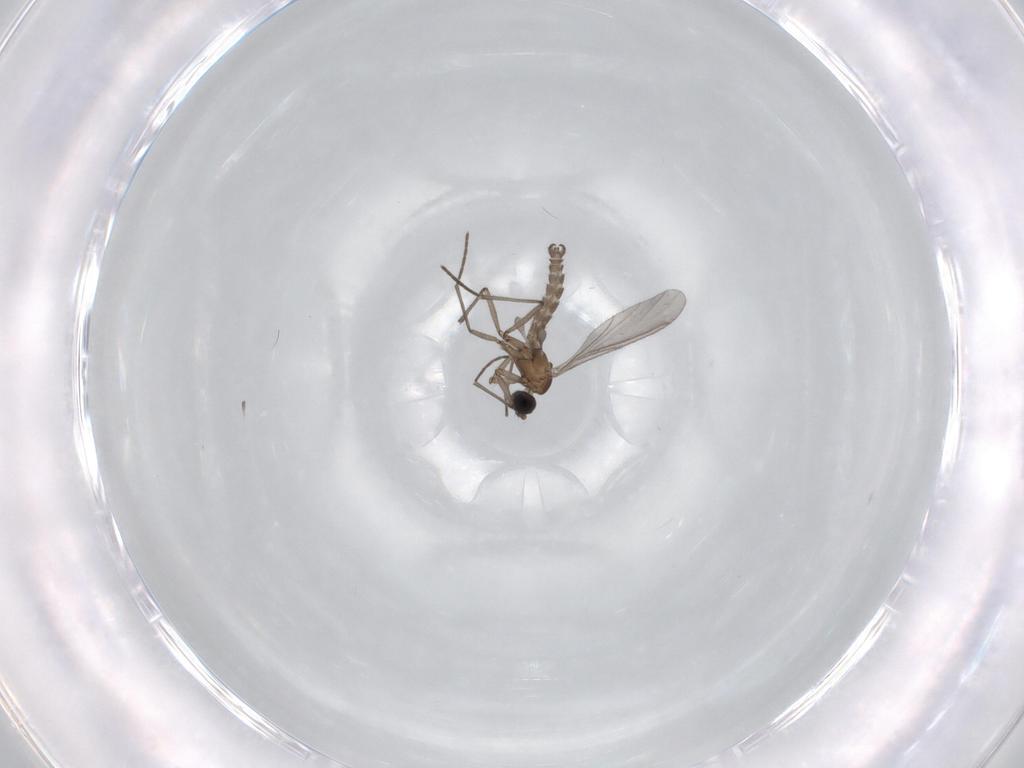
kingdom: Animalia
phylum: Arthropoda
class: Insecta
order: Diptera
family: Sciaridae
